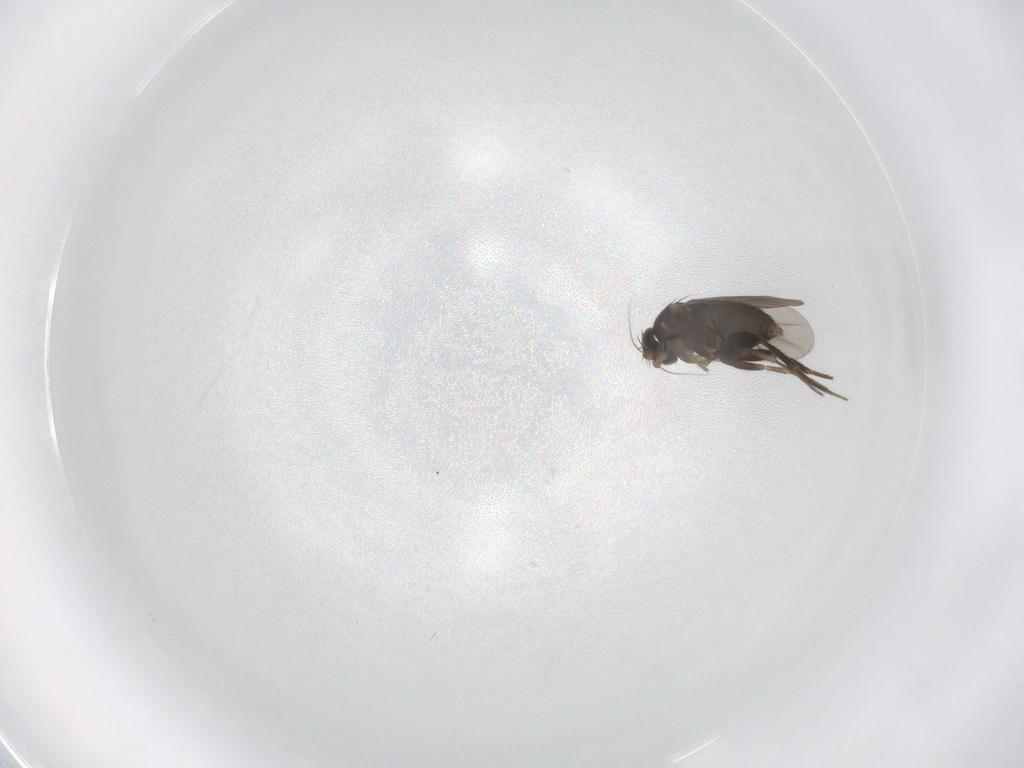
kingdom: Animalia
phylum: Arthropoda
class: Insecta
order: Diptera
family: Phoridae
